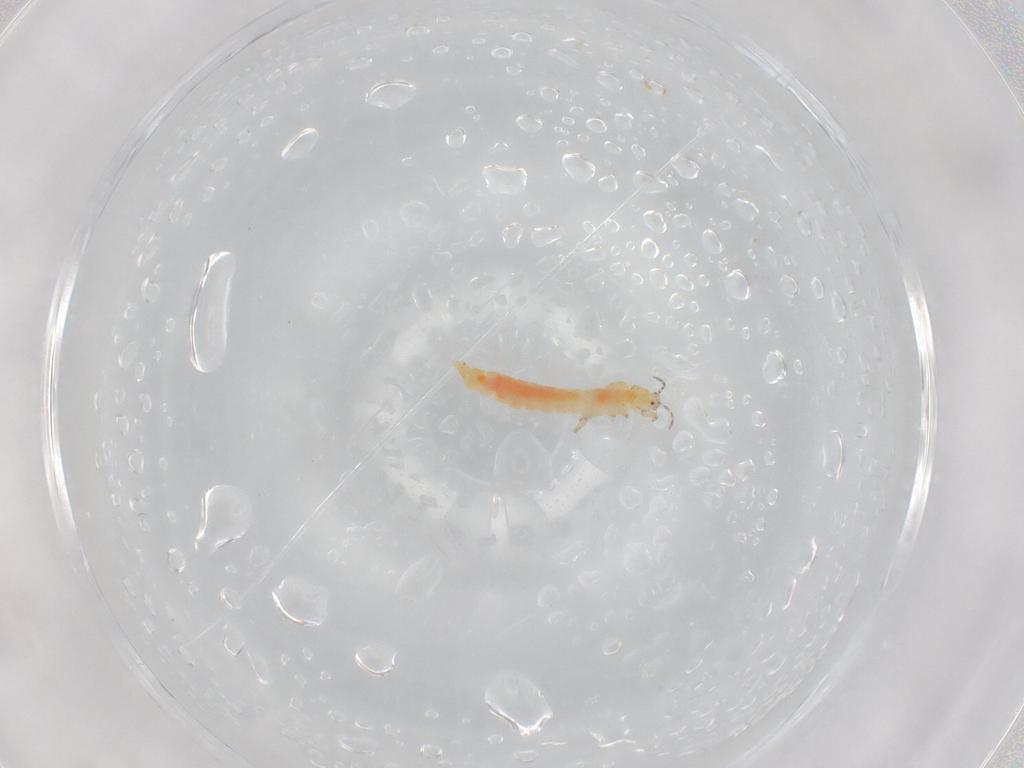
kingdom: Animalia
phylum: Arthropoda
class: Insecta
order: Thysanoptera
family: Aeolothripidae
